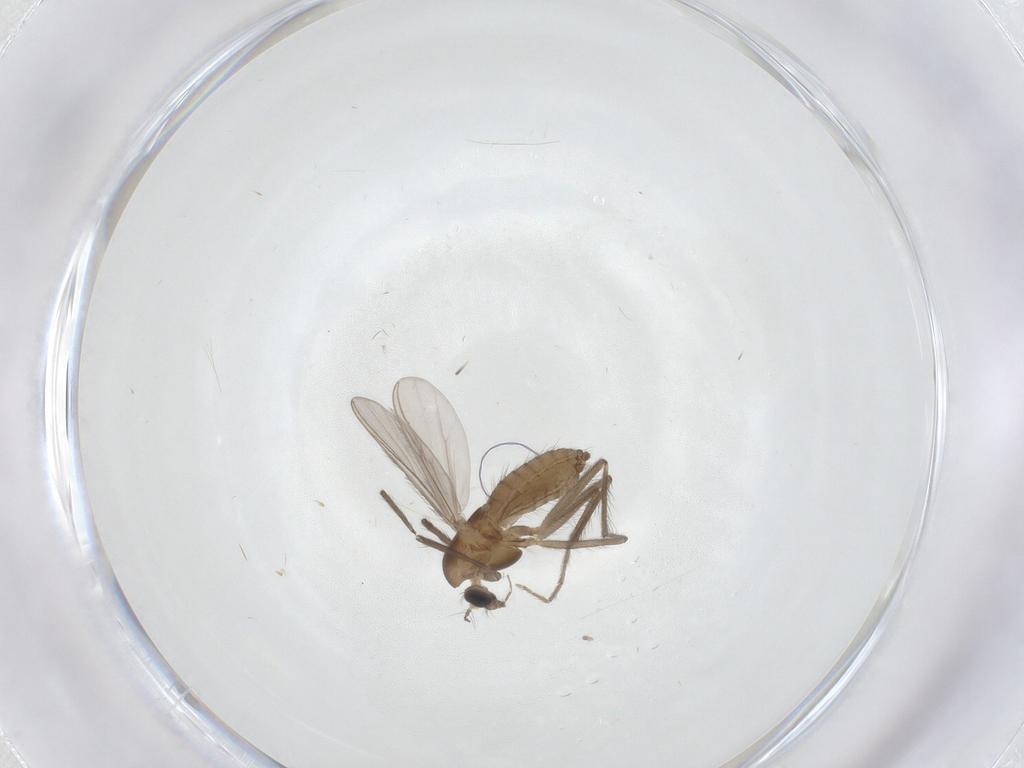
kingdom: Animalia
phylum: Arthropoda
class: Insecta
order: Diptera
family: Chironomidae
